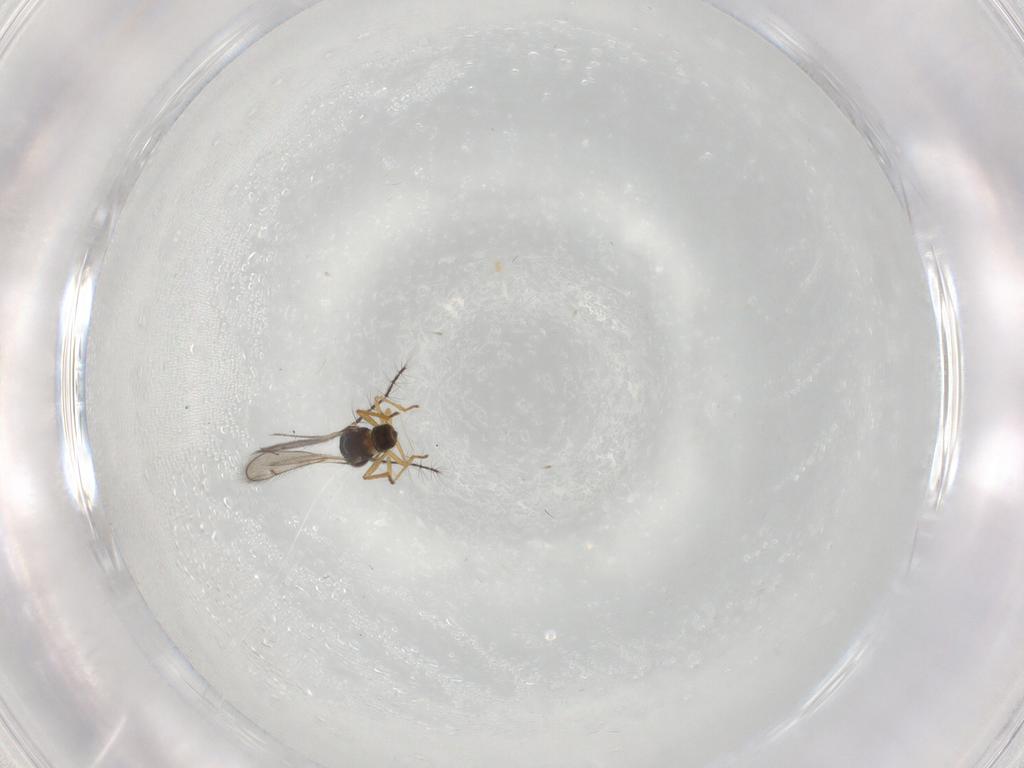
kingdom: Animalia
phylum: Arthropoda
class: Insecta
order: Hymenoptera
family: Eulophidae
